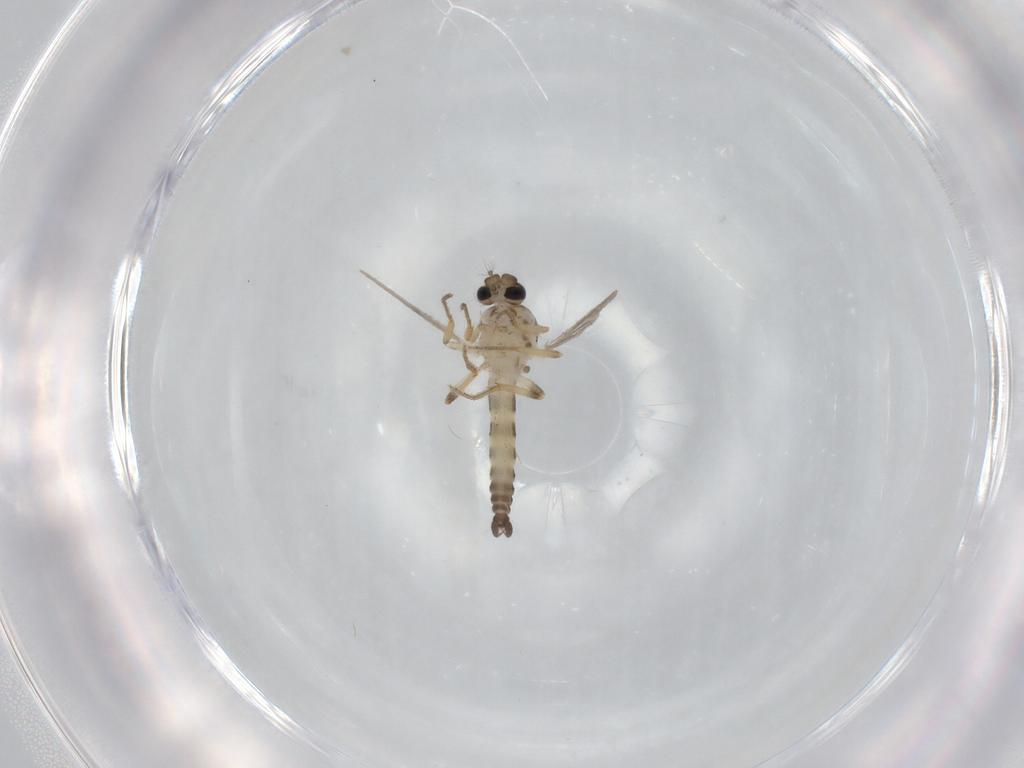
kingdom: Animalia
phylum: Arthropoda
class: Insecta
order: Diptera
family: Ceratopogonidae
